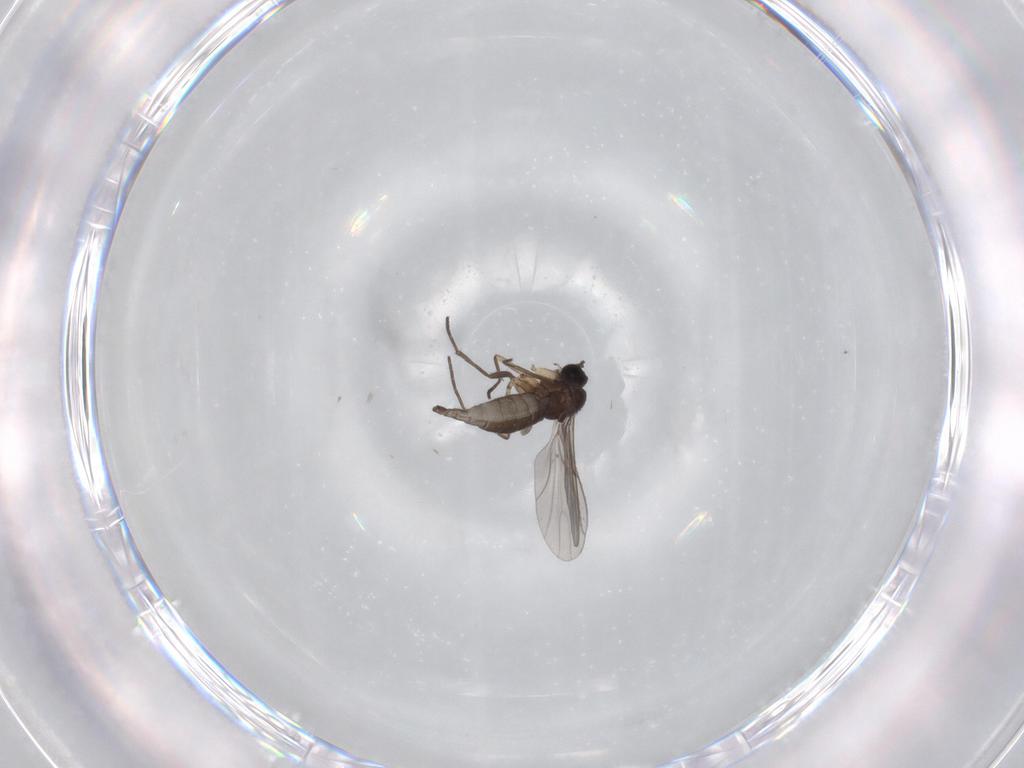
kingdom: Animalia
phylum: Arthropoda
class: Insecta
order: Diptera
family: Sciaridae
